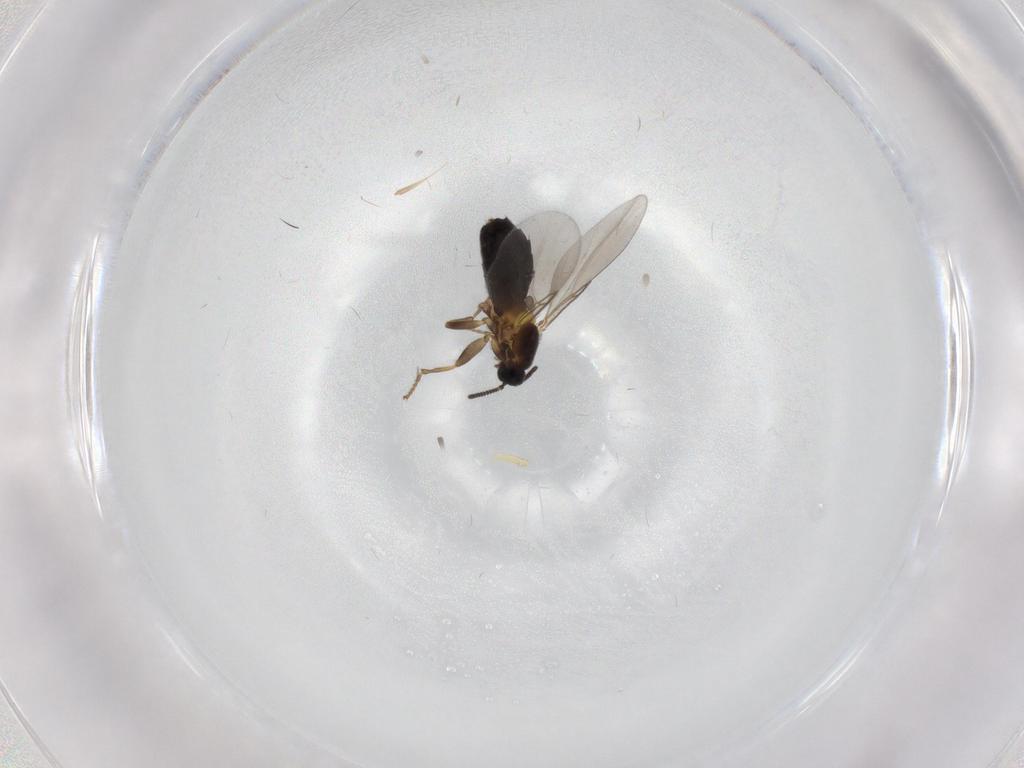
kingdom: Animalia
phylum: Arthropoda
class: Insecta
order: Diptera
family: Scatopsidae
